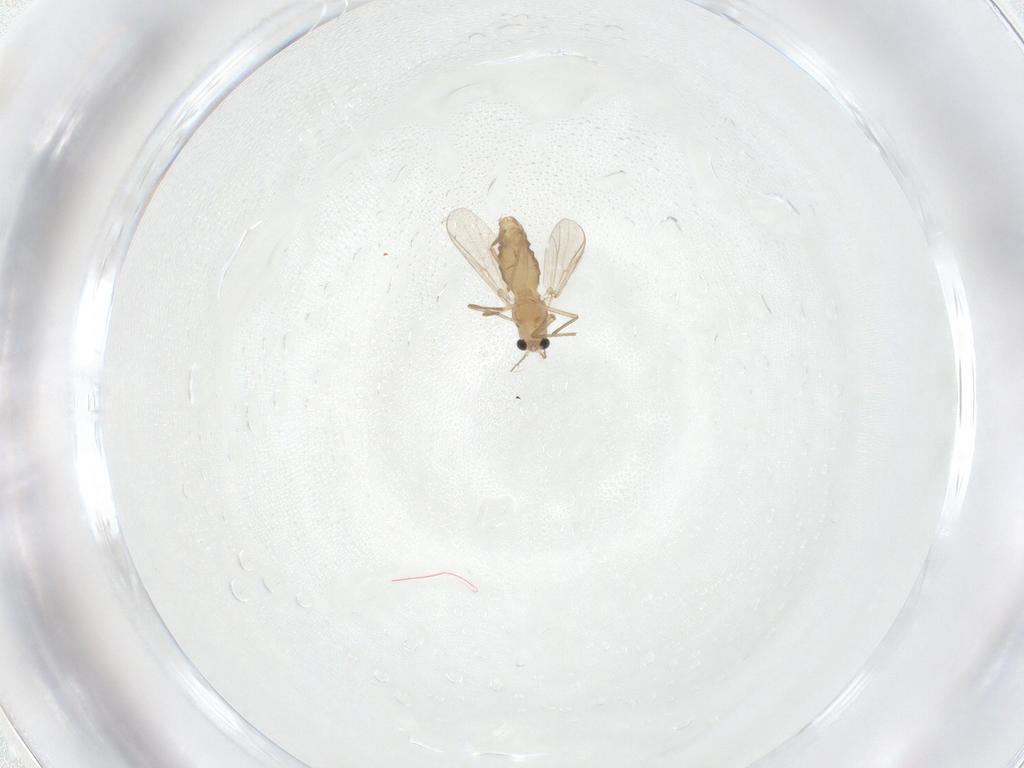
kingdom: Animalia
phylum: Arthropoda
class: Insecta
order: Diptera
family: Chironomidae
